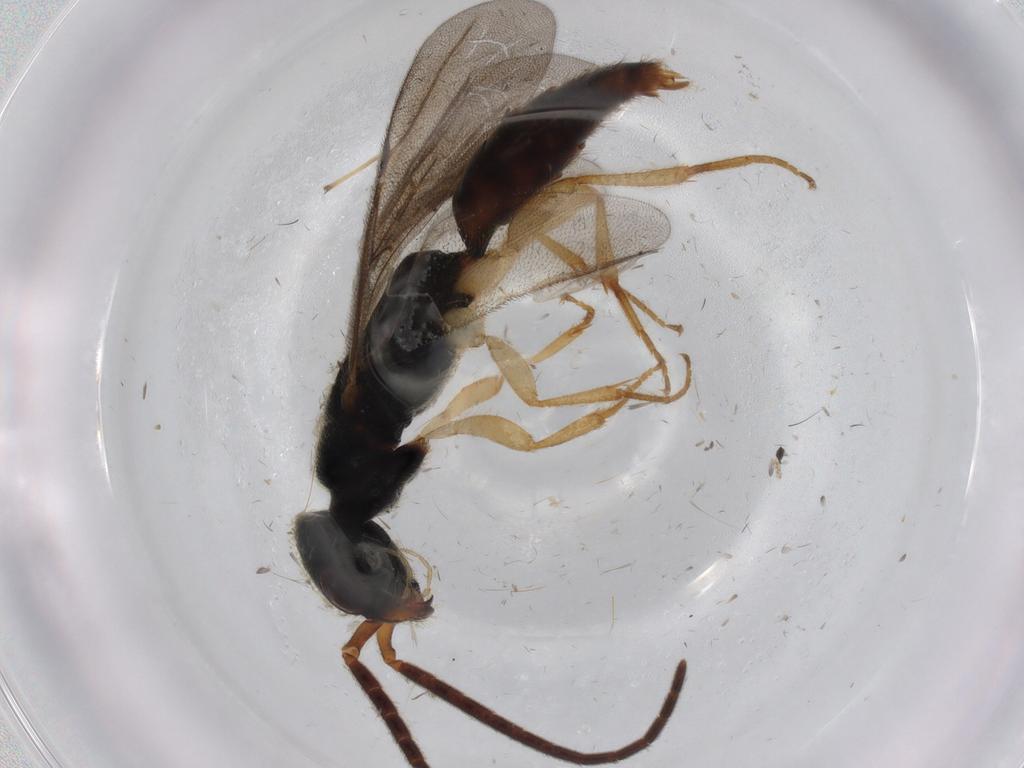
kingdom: Animalia
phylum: Arthropoda
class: Insecta
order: Hymenoptera
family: Bethylidae
